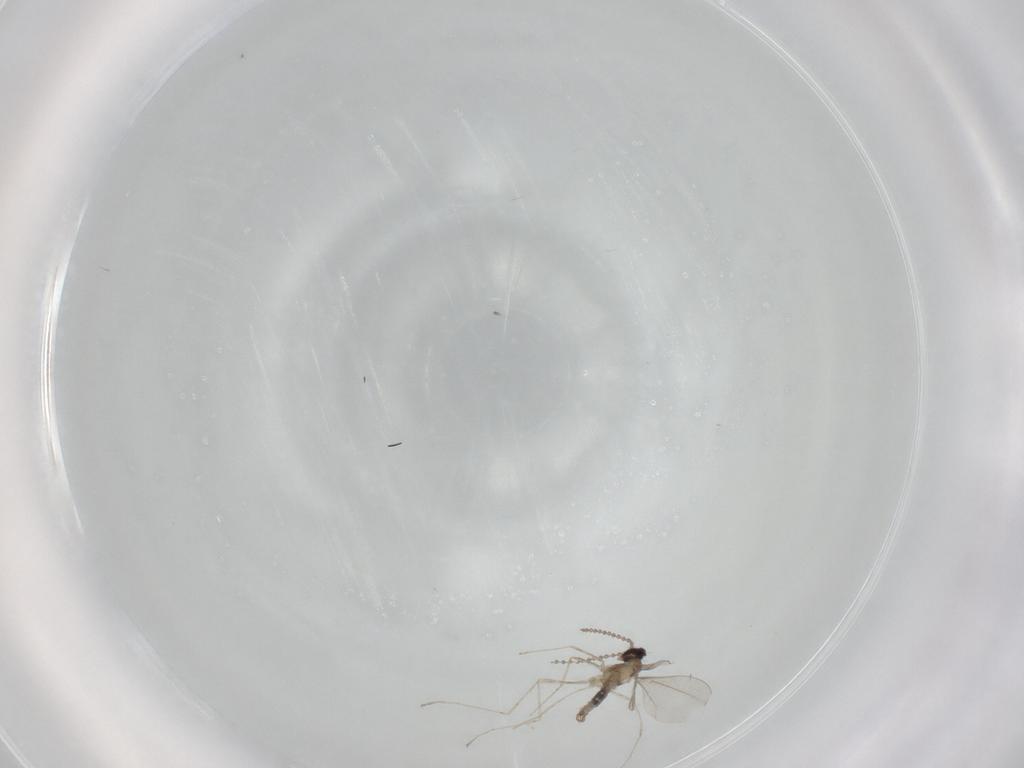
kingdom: Animalia
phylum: Arthropoda
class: Insecta
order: Diptera
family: Cecidomyiidae
